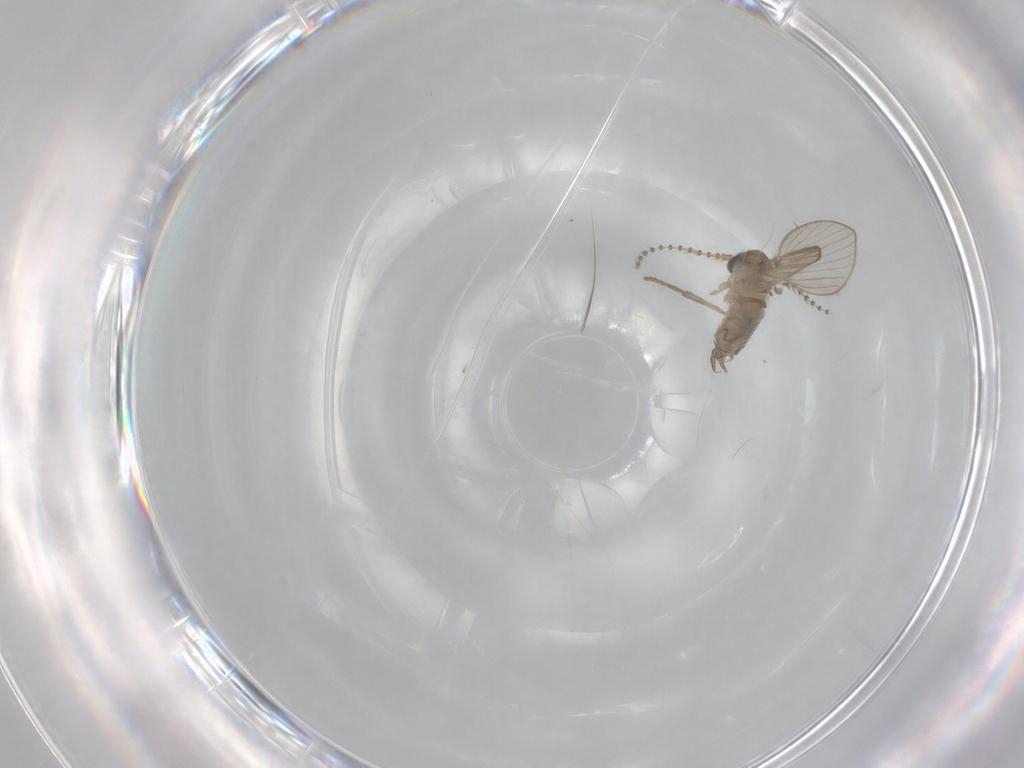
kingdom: Animalia
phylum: Arthropoda
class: Insecta
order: Diptera
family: Psychodidae
